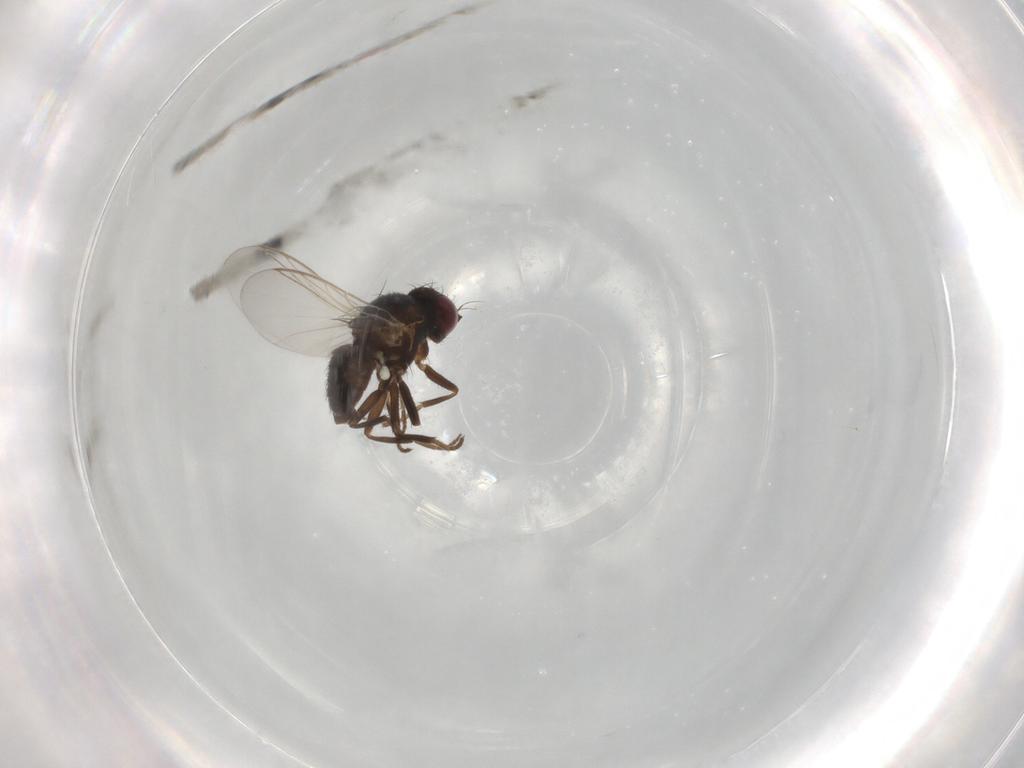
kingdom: Animalia
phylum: Arthropoda
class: Insecta
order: Diptera
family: Agromyzidae
